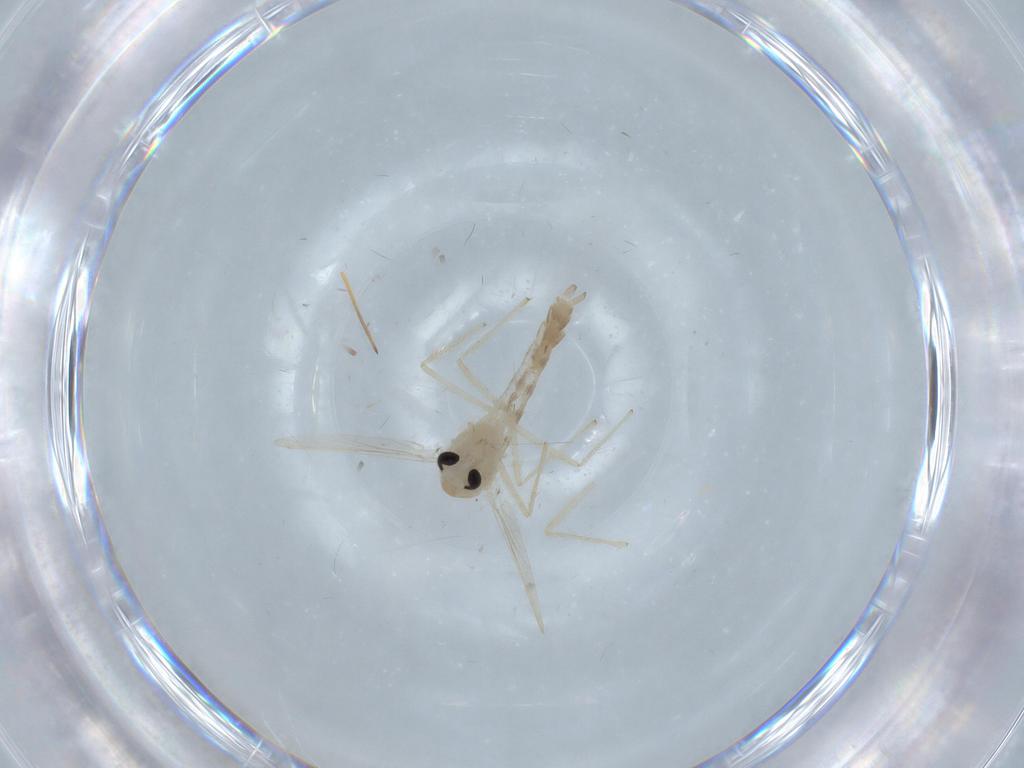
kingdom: Animalia
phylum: Arthropoda
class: Insecta
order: Diptera
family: Chironomidae
